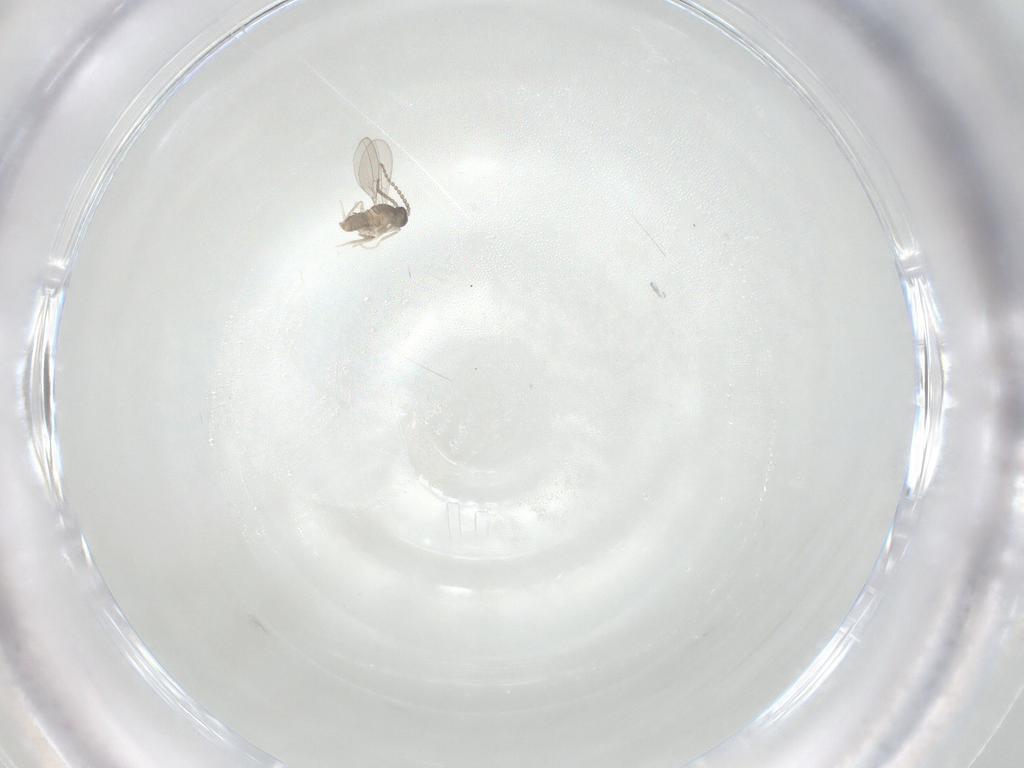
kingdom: Animalia
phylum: Arthropoda
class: Insecta
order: Diptera
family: Cecidomyiidae
